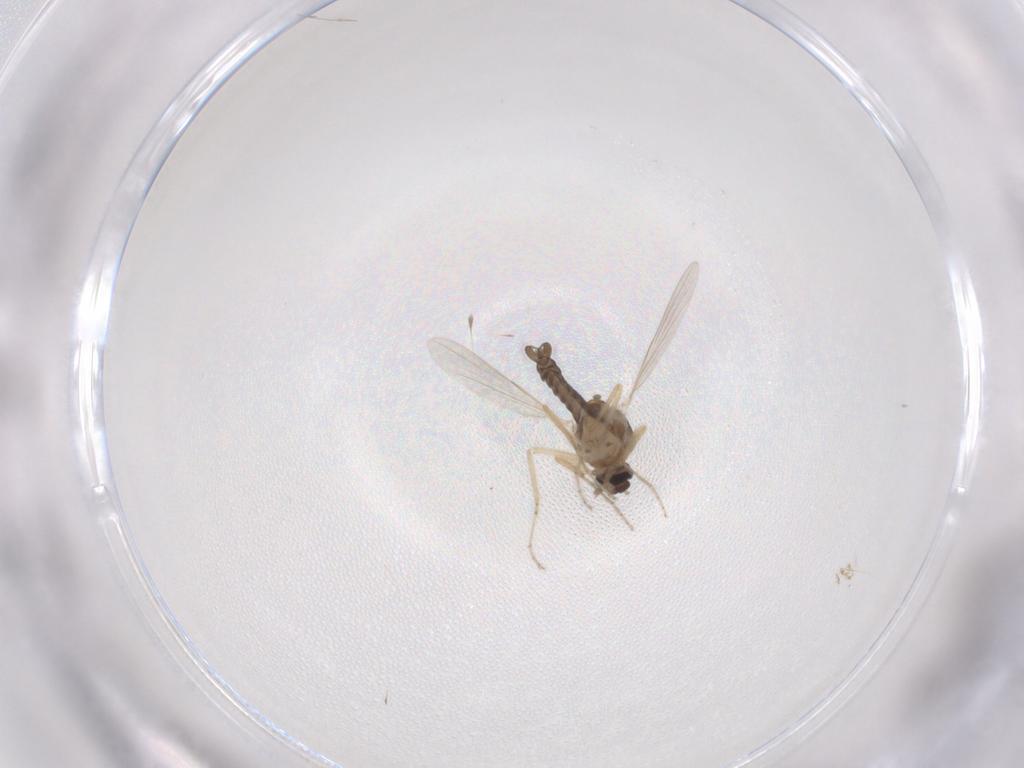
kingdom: Animalia
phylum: Arthropoda
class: Insecta
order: Diptera
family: Ceratopogonidae
